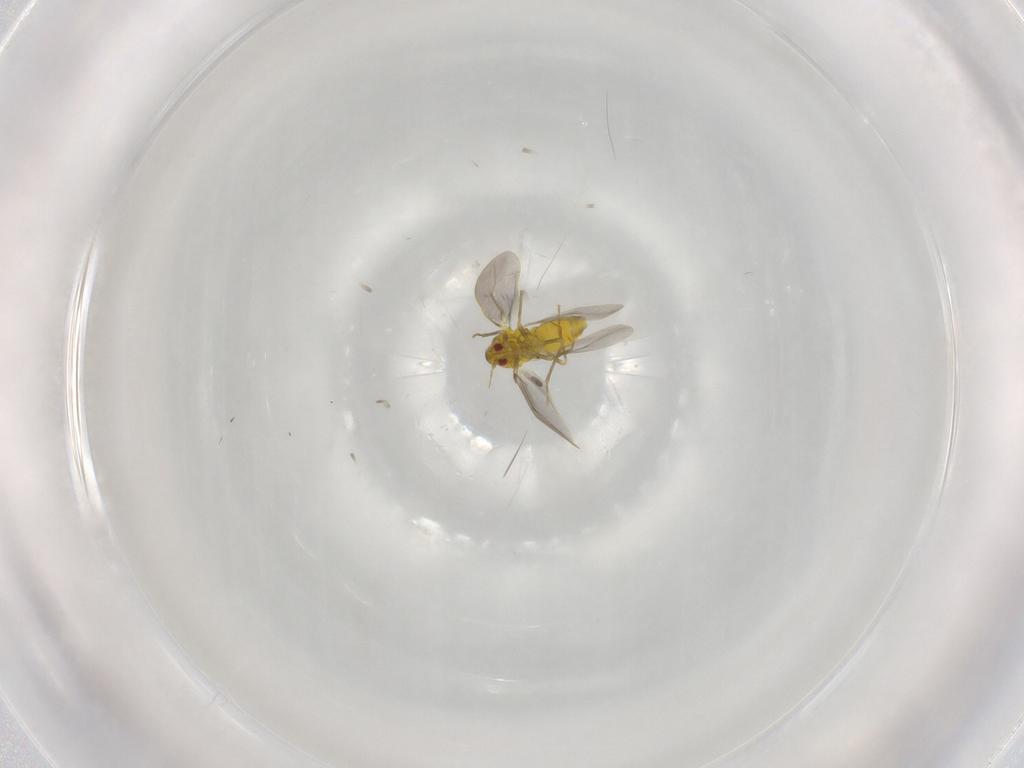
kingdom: Animalia
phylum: Arthropoda
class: Insecta
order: Hemiptera
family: Aleyrodidae
